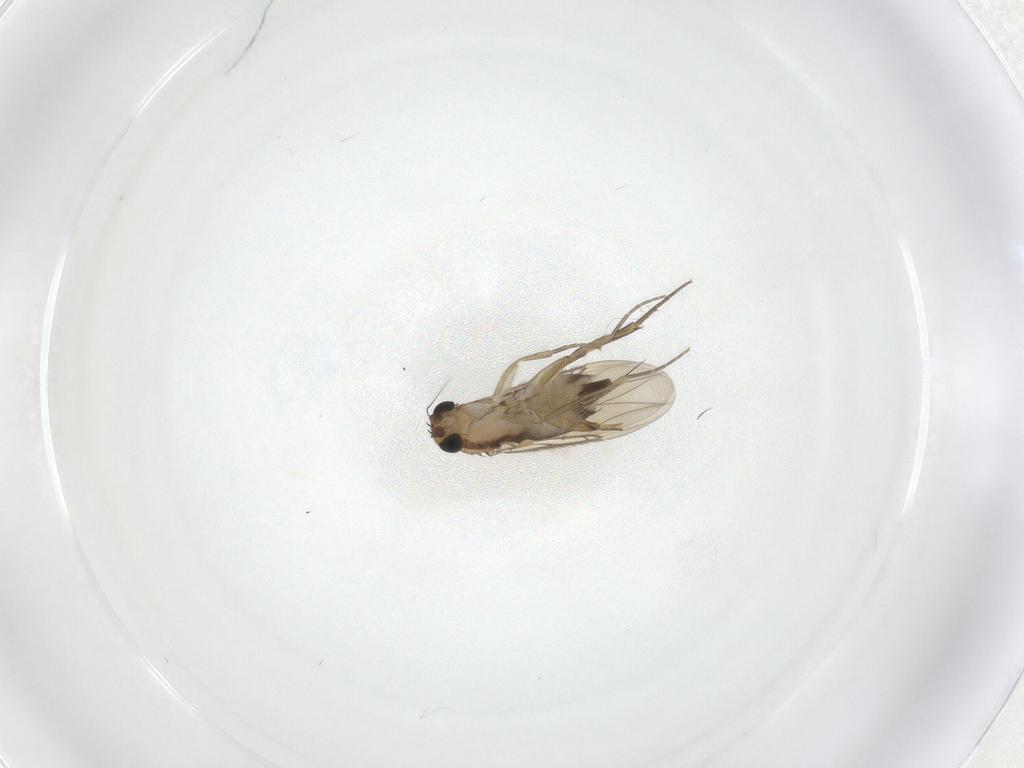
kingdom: Animalia
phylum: Arthropoda
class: Insecta
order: Diptera
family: Phoridae
